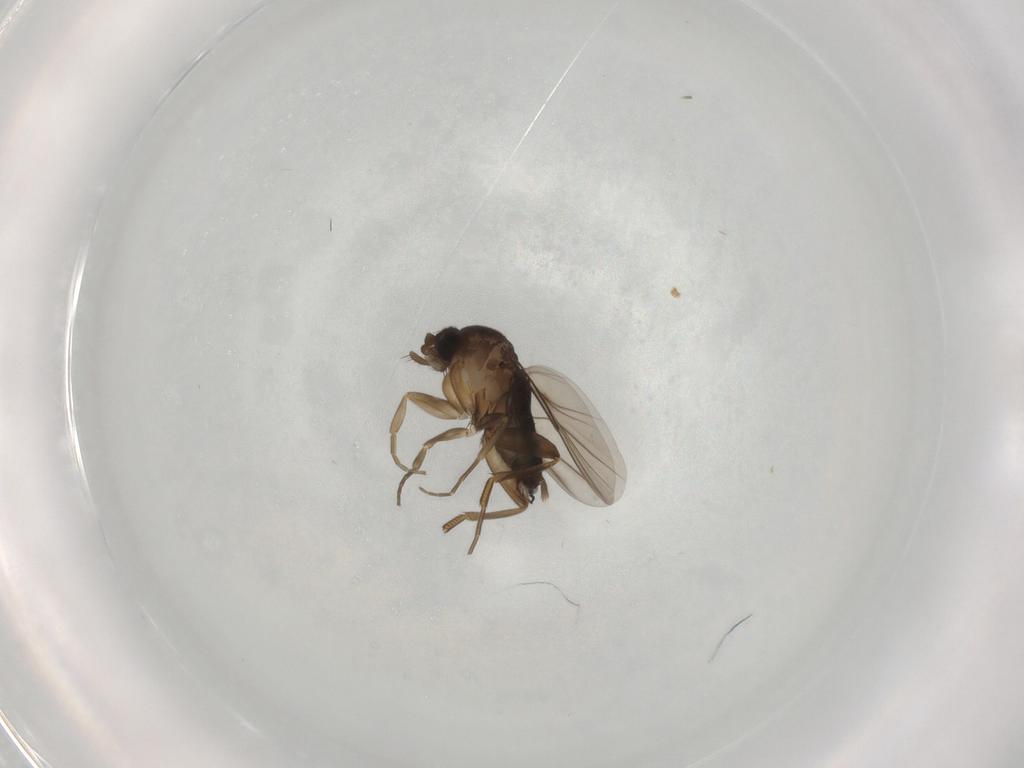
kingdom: Animalia
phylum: Arthropoda
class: Insecta
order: Diptera
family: Phoridae
